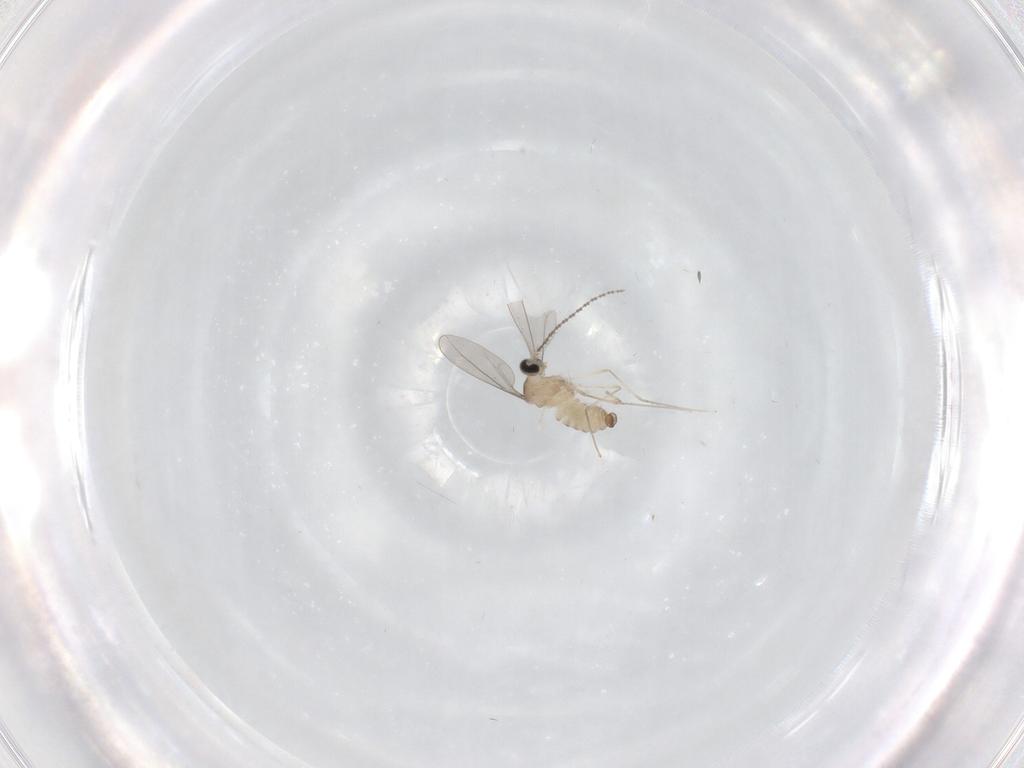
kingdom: Animalia
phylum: Arthropoda
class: Insecta
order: Diptera
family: Cecidomyiidae
